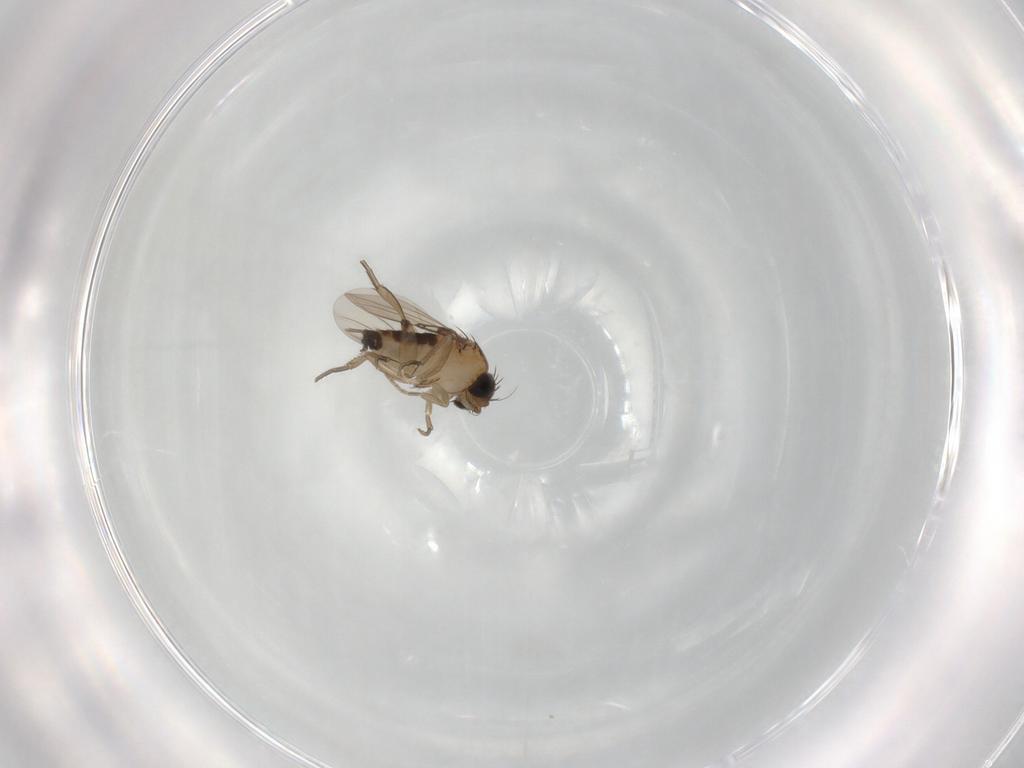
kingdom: Animalia
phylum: Arthropoda
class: Insecta
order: Diptera
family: Phoridae
